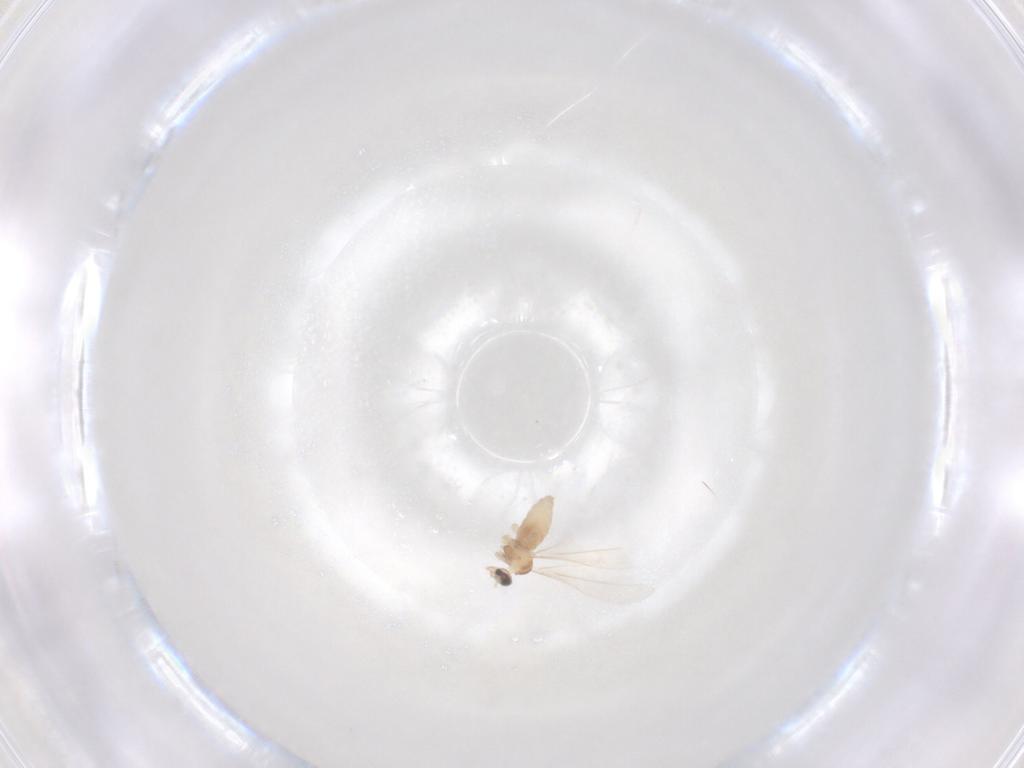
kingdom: Animalia
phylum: Arthropoda
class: Insecta
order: Diptera
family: Cecidomyiidae
